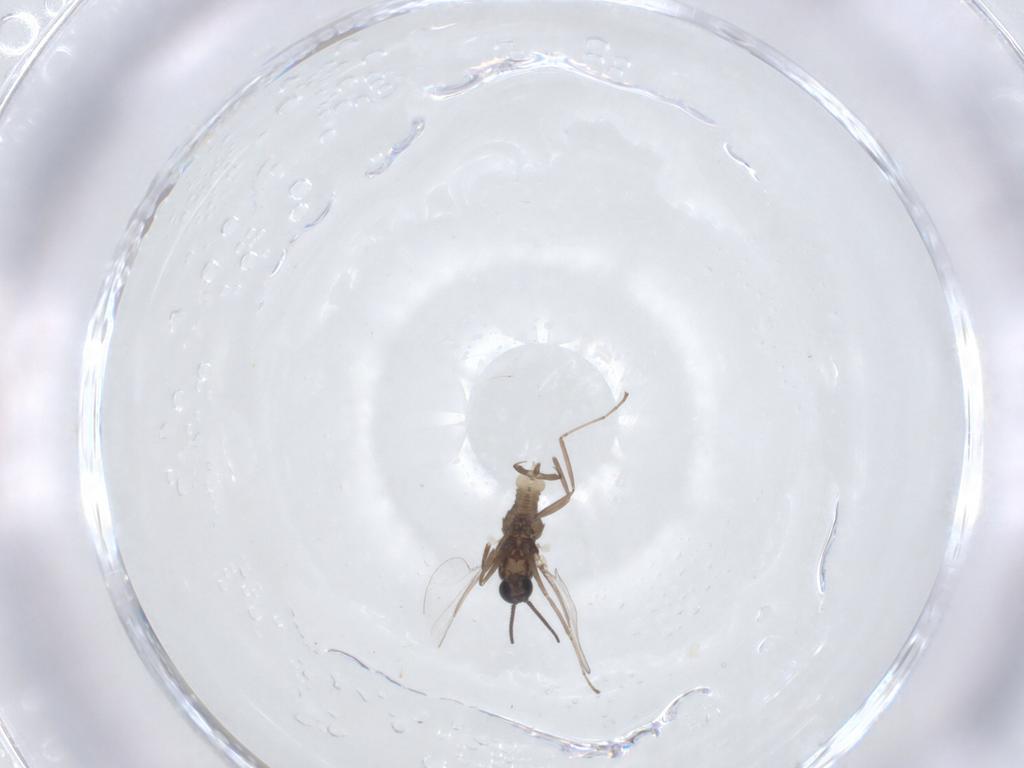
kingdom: Animalia
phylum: Arthropoda
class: Insecta
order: Diptera
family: Cecidomyiidae
